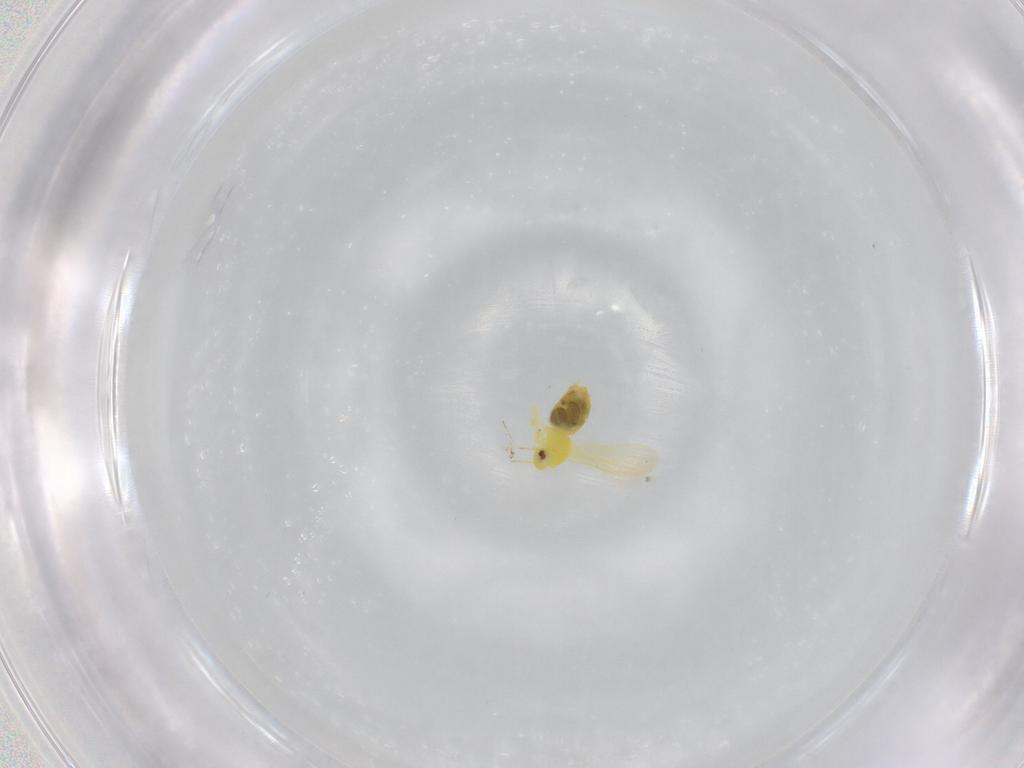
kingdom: Animalia
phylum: Arthropoda
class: Insecta
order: Hemiptera
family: Aleyrodidae
